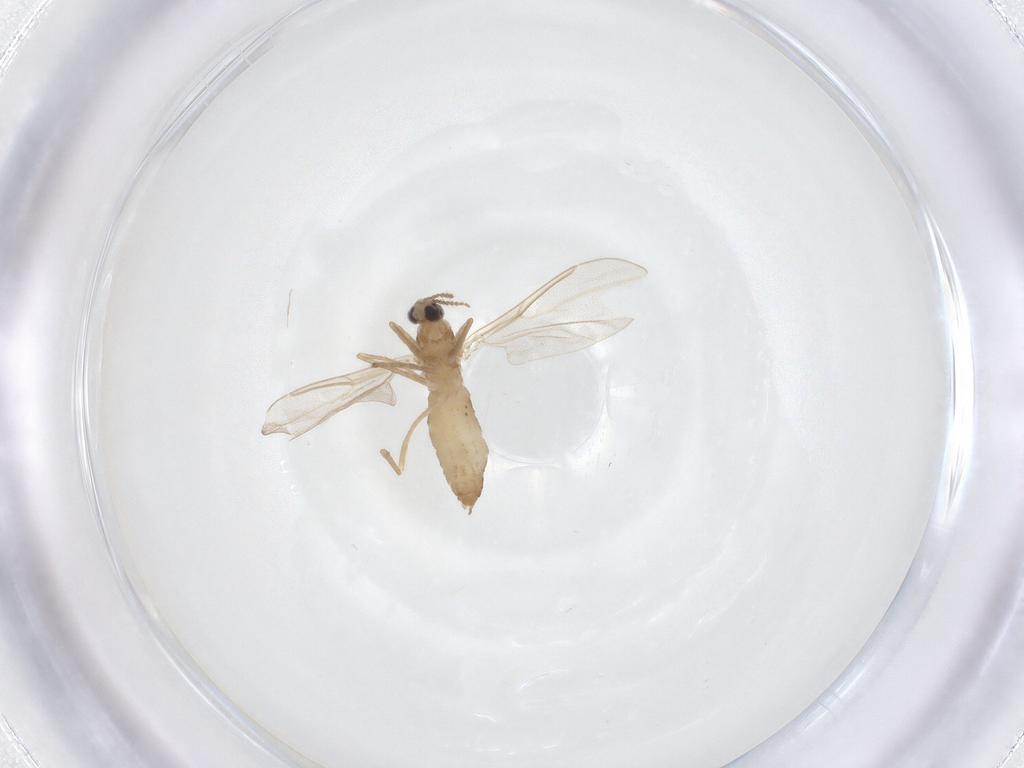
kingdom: Animalia
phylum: Arthropoda
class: Insecta
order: Diptera
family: Cecidomyiidae
